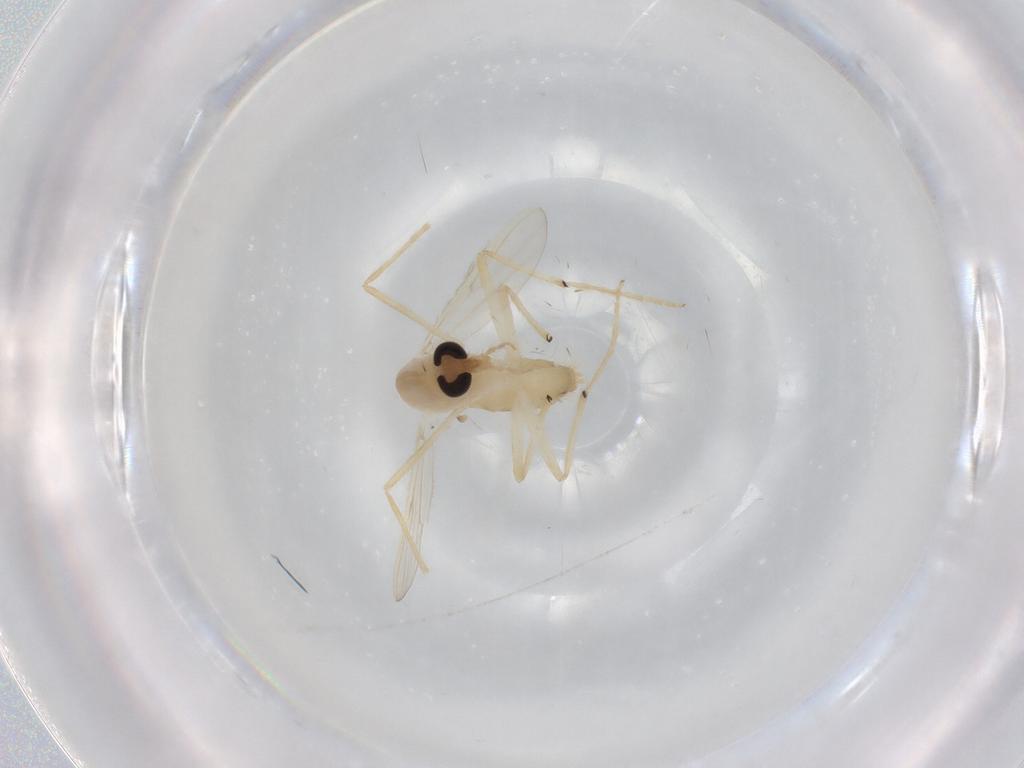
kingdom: Animalia
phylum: Arthropoda
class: Insecta
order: Diptera
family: Chironomidae
